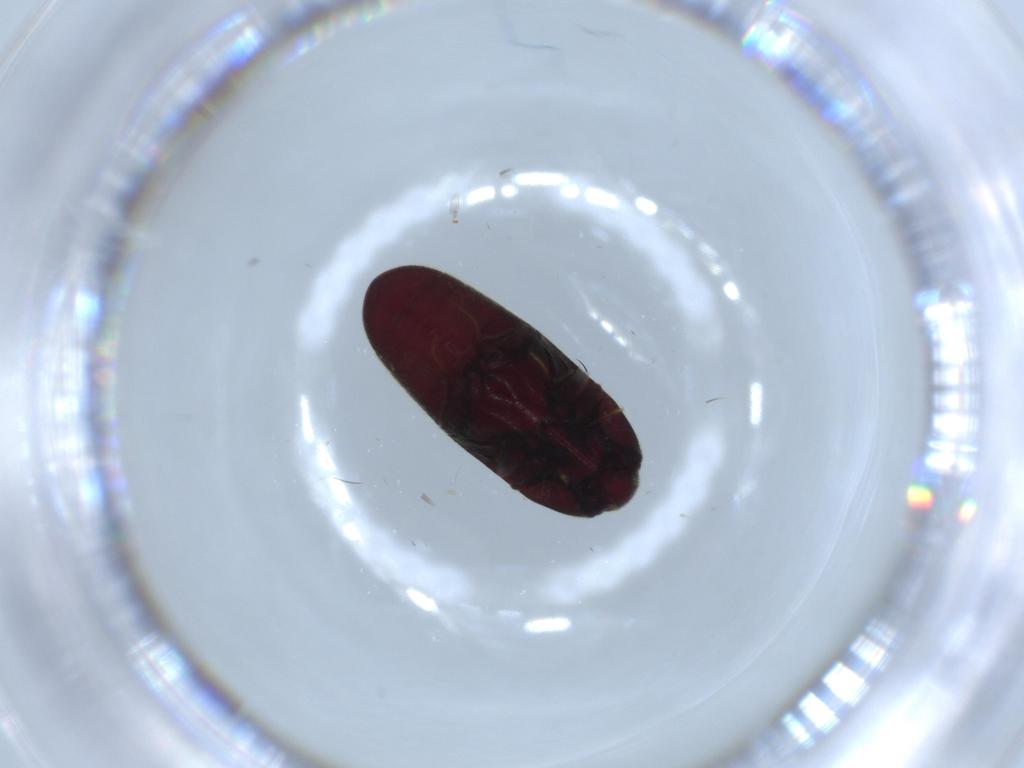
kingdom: Animalia
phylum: Arthropoda
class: Insecta
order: Coleoptera
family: Throscidae
